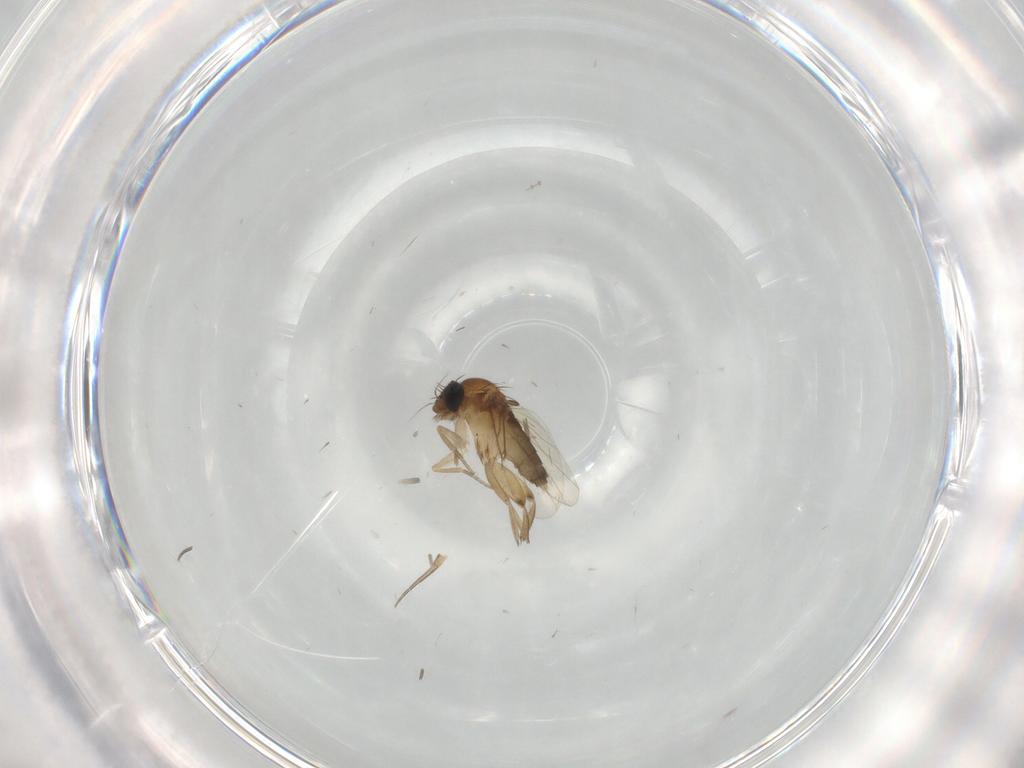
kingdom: Animalia
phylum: Arthropoda
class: Insecta
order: Diptera
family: Phoridae
